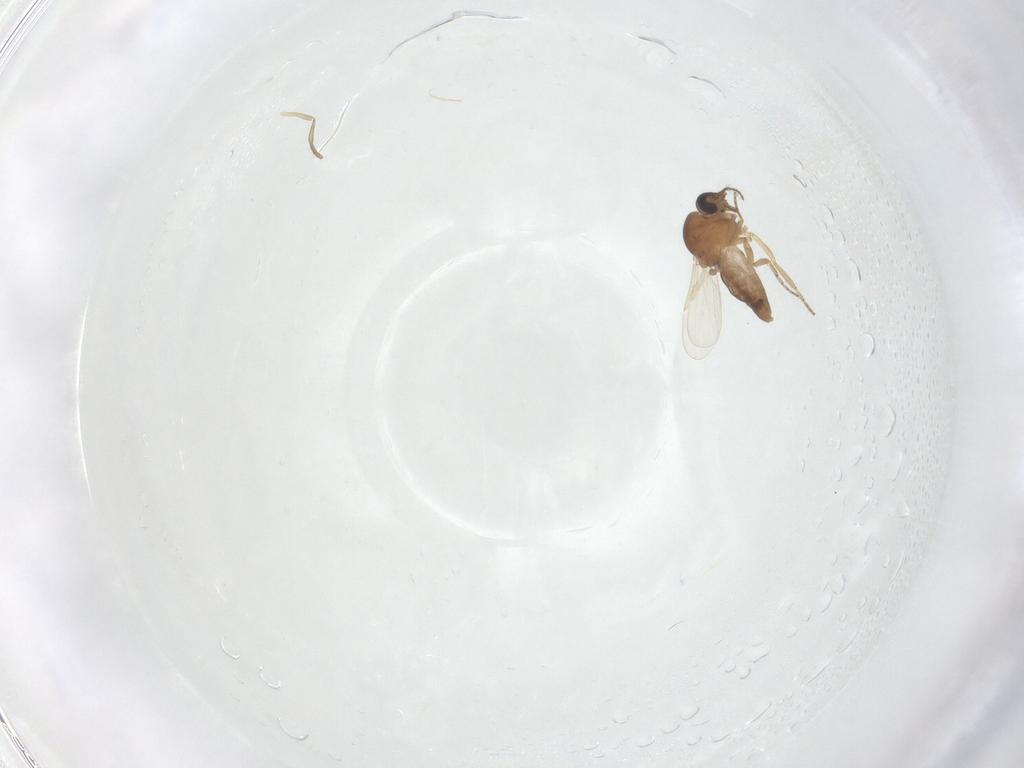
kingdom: Animalia
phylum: Arthropoda
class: Insecta
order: Diptera
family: Ceratopogonidae
